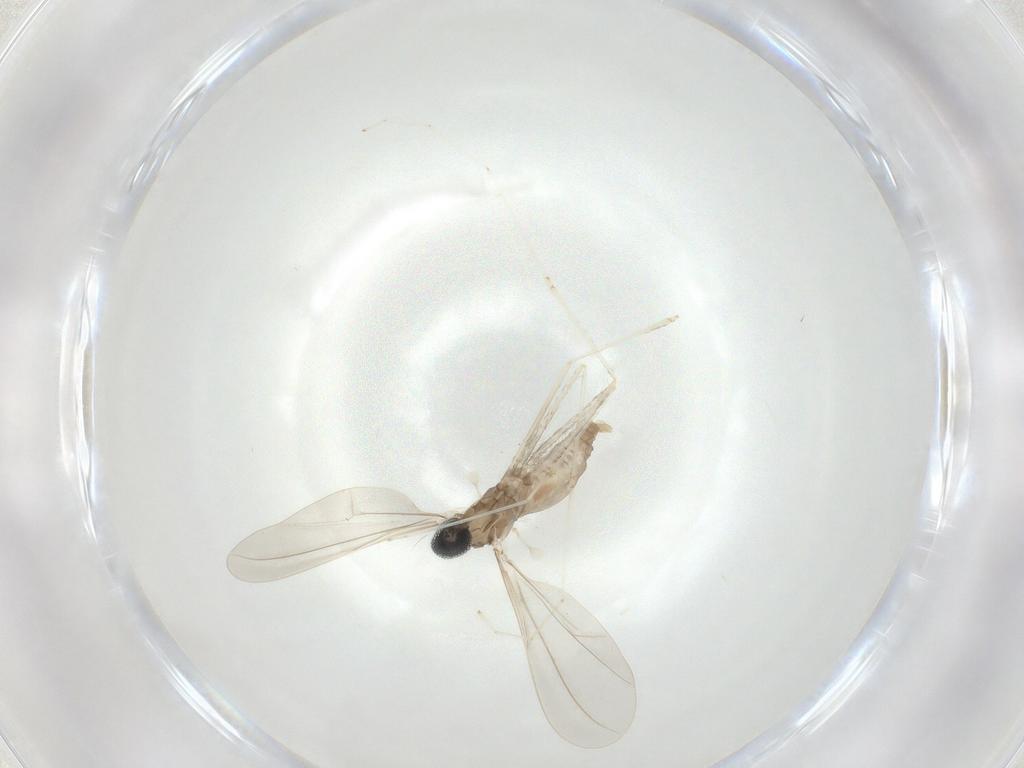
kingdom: Animalia
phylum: Arthropoda
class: Insecta
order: Diptera
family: Cecidomyiidae
